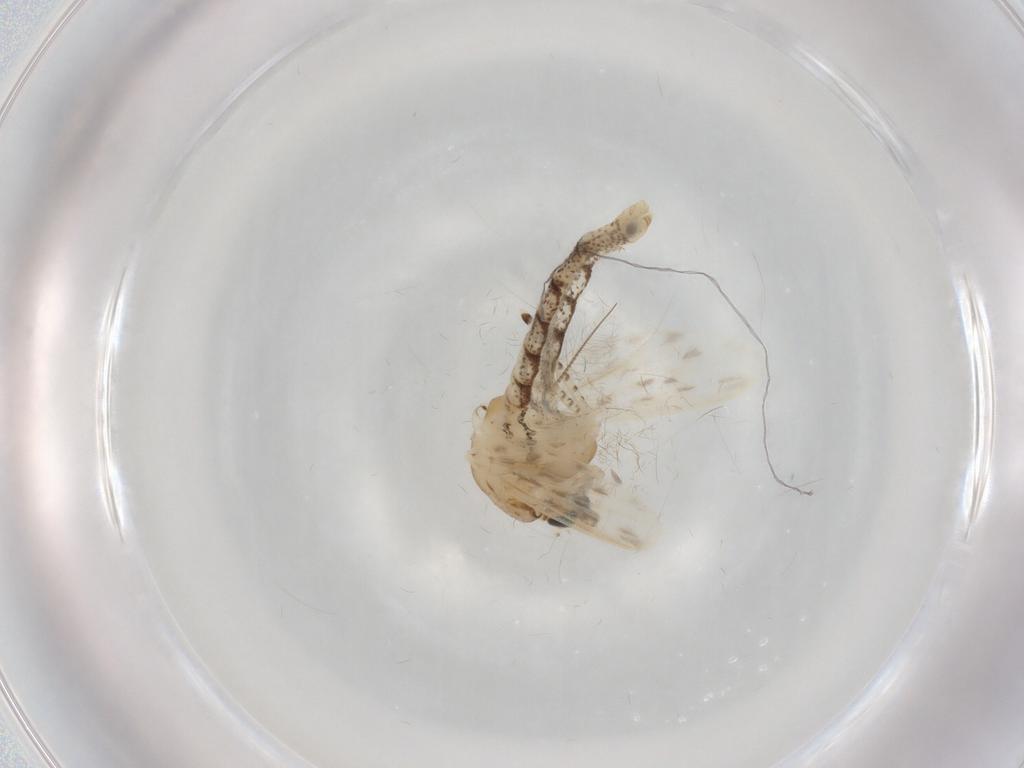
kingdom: Animalia
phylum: Arthropoda
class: Insecta
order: Diptera
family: Chaoboridae
